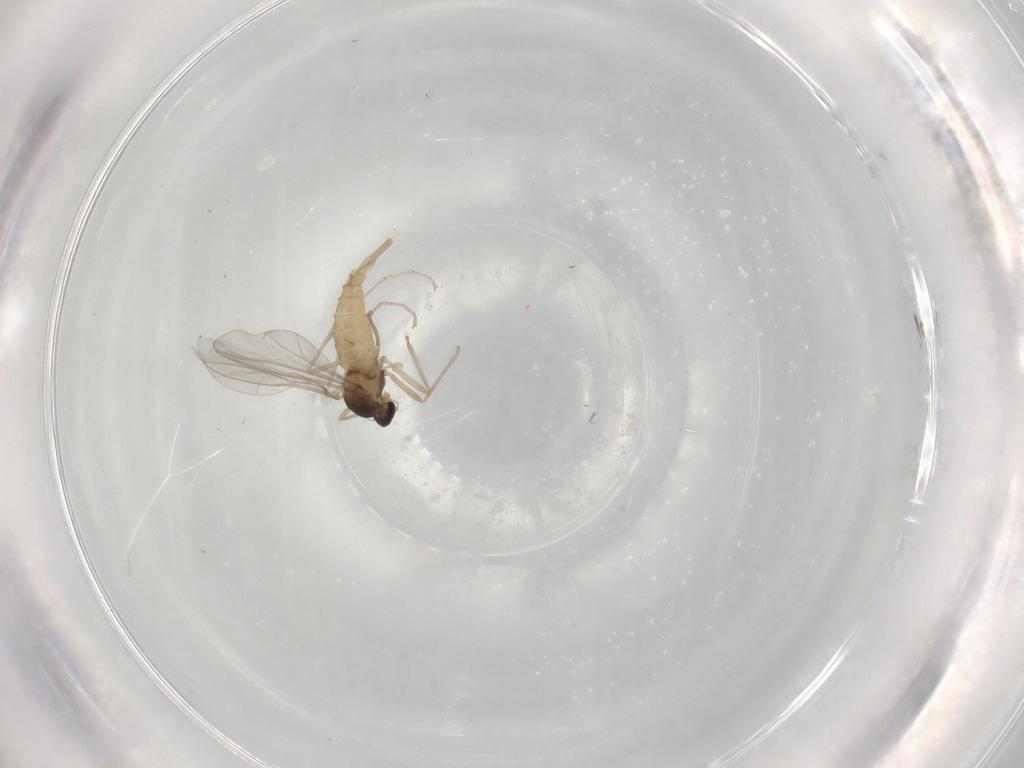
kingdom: Animalia
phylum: Arthropoda
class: Insecta
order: Diptera
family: Cecidomyiidae
